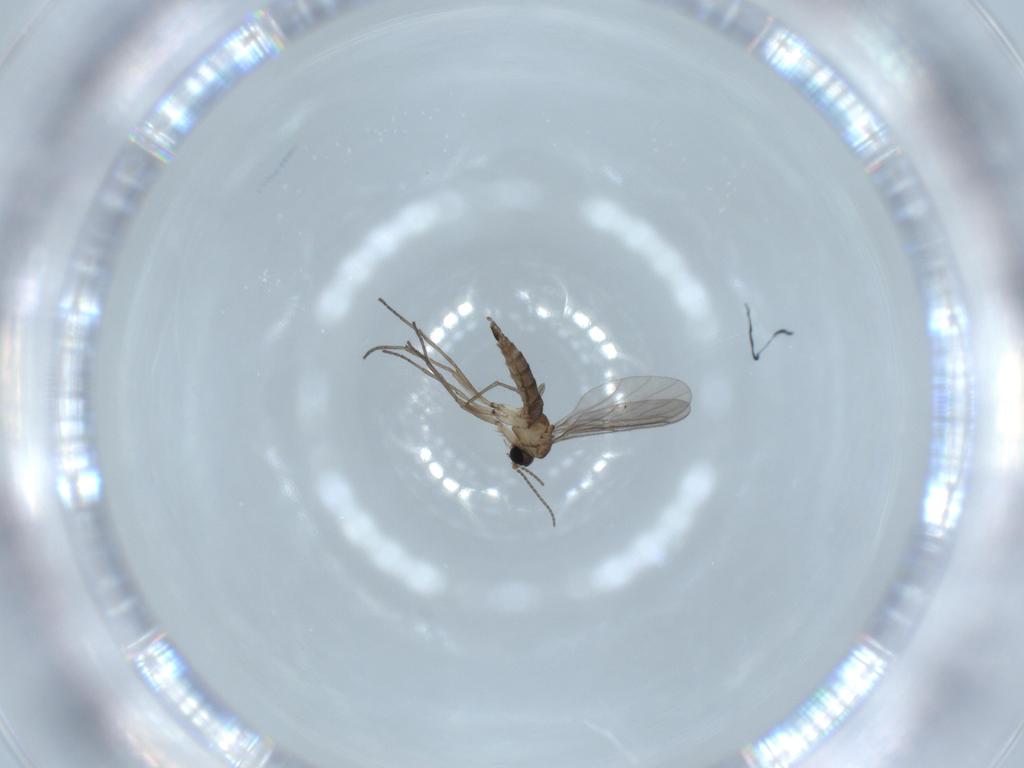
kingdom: Animalia
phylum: Arthropoda
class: Insecta
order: Diptera
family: Sciaridae
